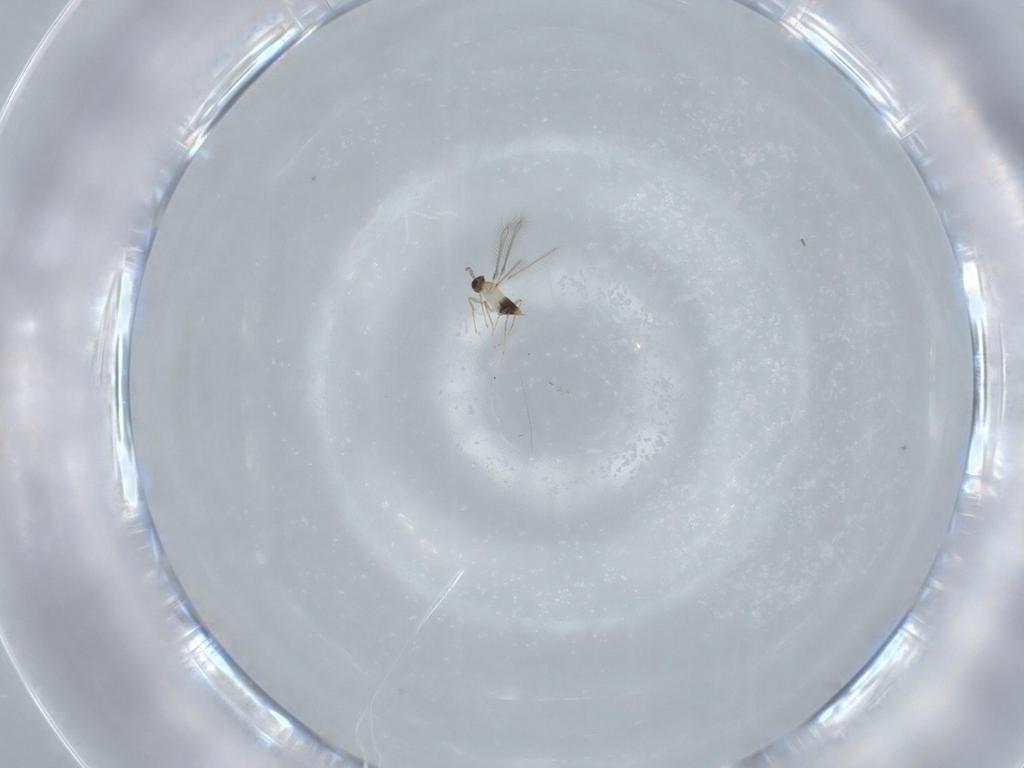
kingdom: Animalia
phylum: Arthropoda
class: Insecta
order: Hymenoptera
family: Mymaridae
